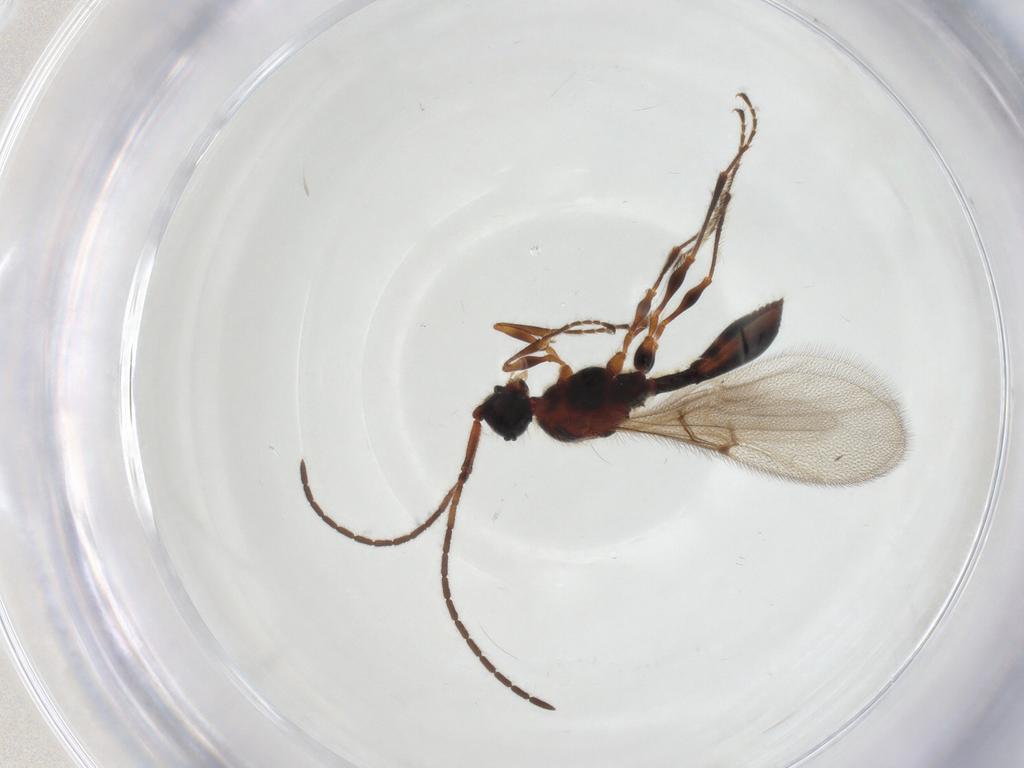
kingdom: Animalia
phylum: Arthropoda
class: Insecta
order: Hymenoptera
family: Diapriidae
